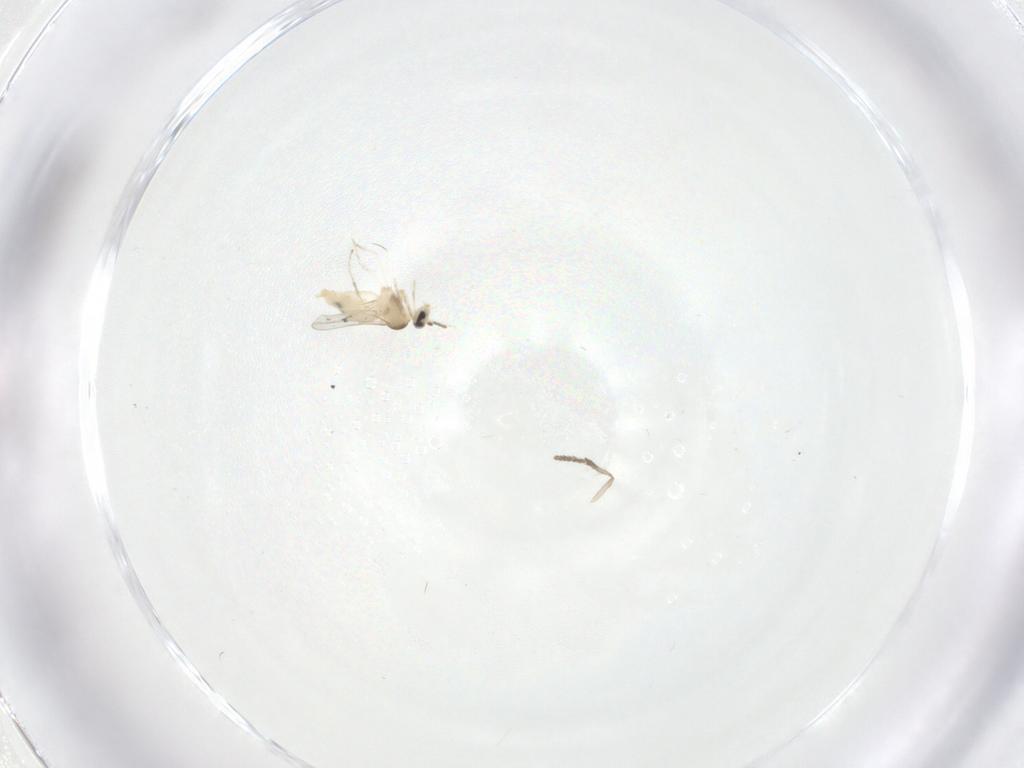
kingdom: Animalia
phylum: Arthropoda
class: Insecta
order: Diptera
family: Cecidomyiidae
